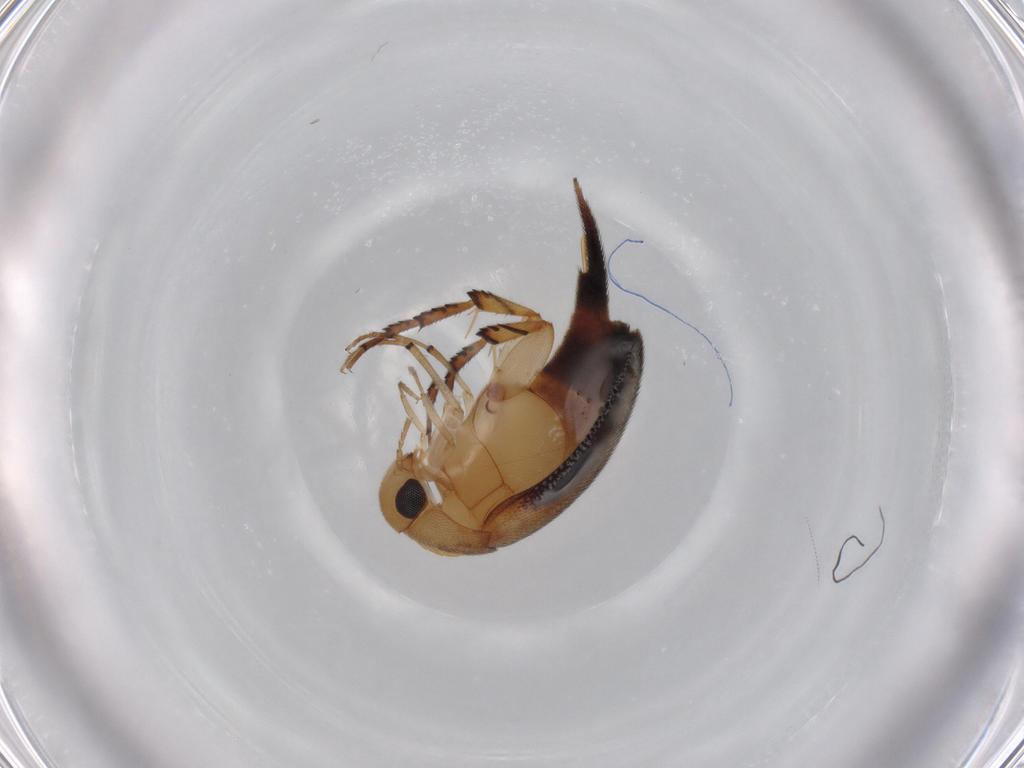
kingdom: Animalia
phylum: Arthropoda
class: Insecta
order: Coleoptera
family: Mordellidae
